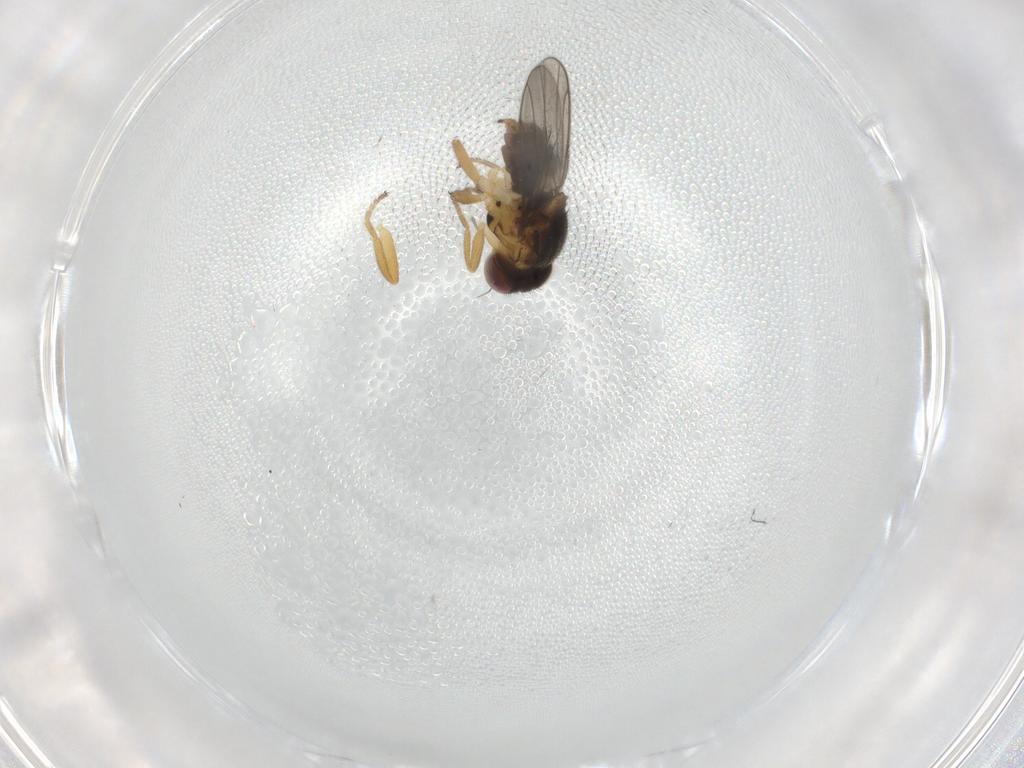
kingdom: Animalia
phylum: Arthropoda
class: Insecta
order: Diptera
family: Chloropidae
